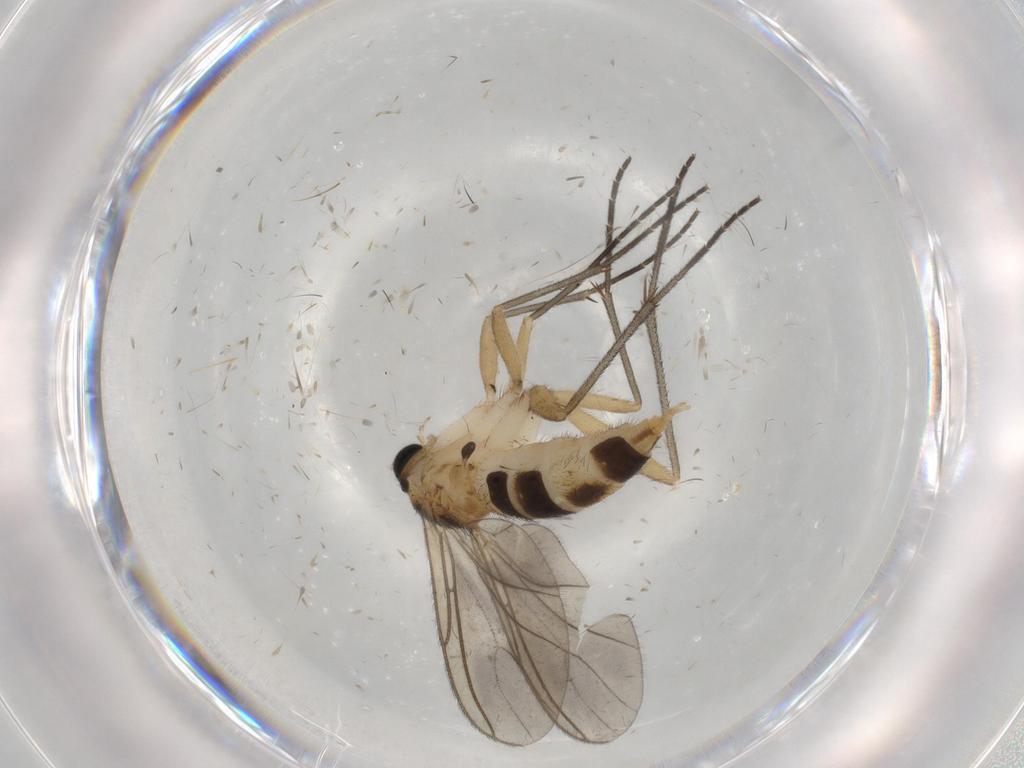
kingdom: Animalia
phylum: Arthropoda
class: Insecta
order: Diptera
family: Sciaridae
